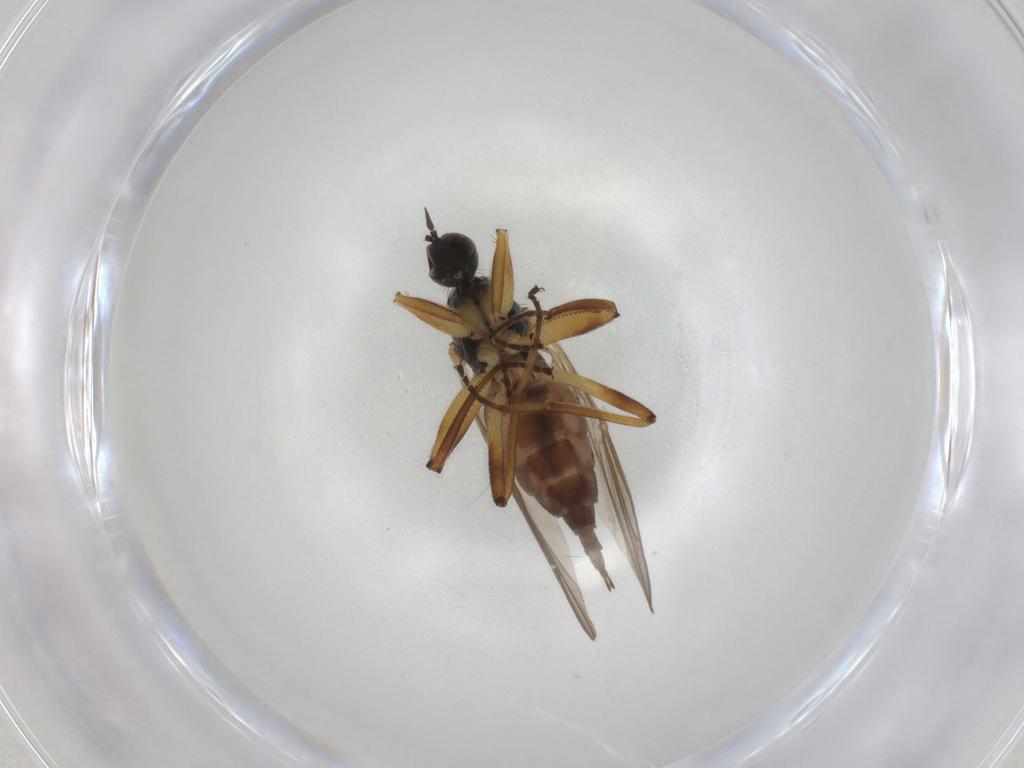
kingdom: Animalia
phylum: Arthropoda
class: Insecta
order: Diptera
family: Hybotidae
